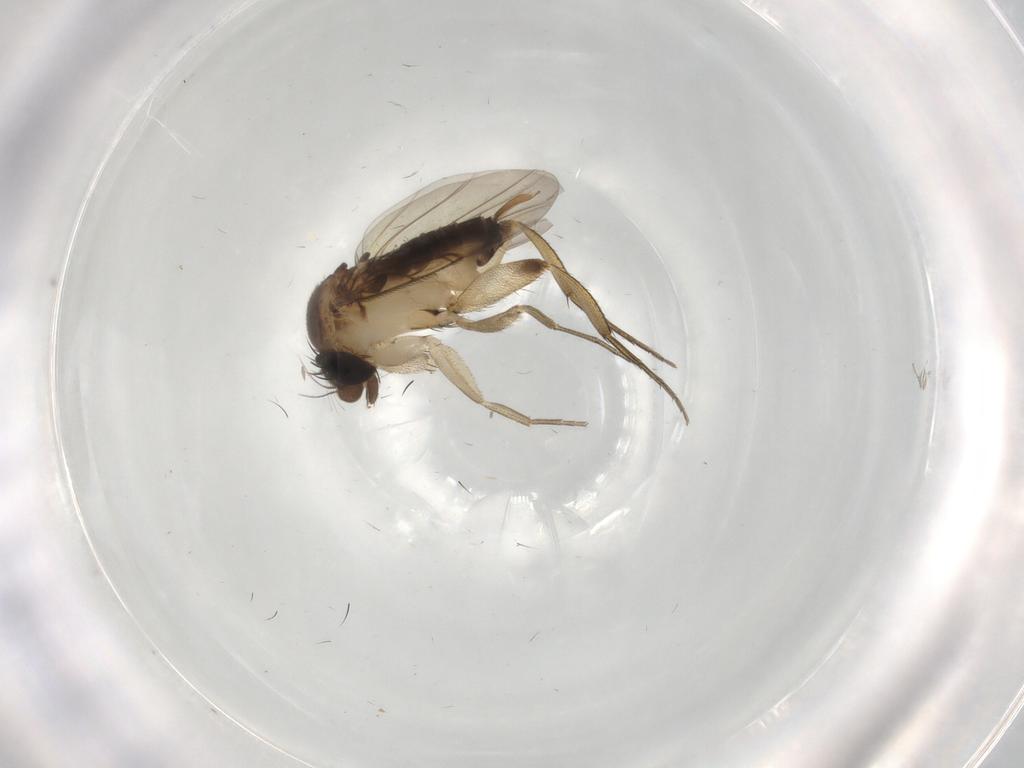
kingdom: Animalia
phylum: Arthropoda
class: Insecta
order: Diptera
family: Phoridae
